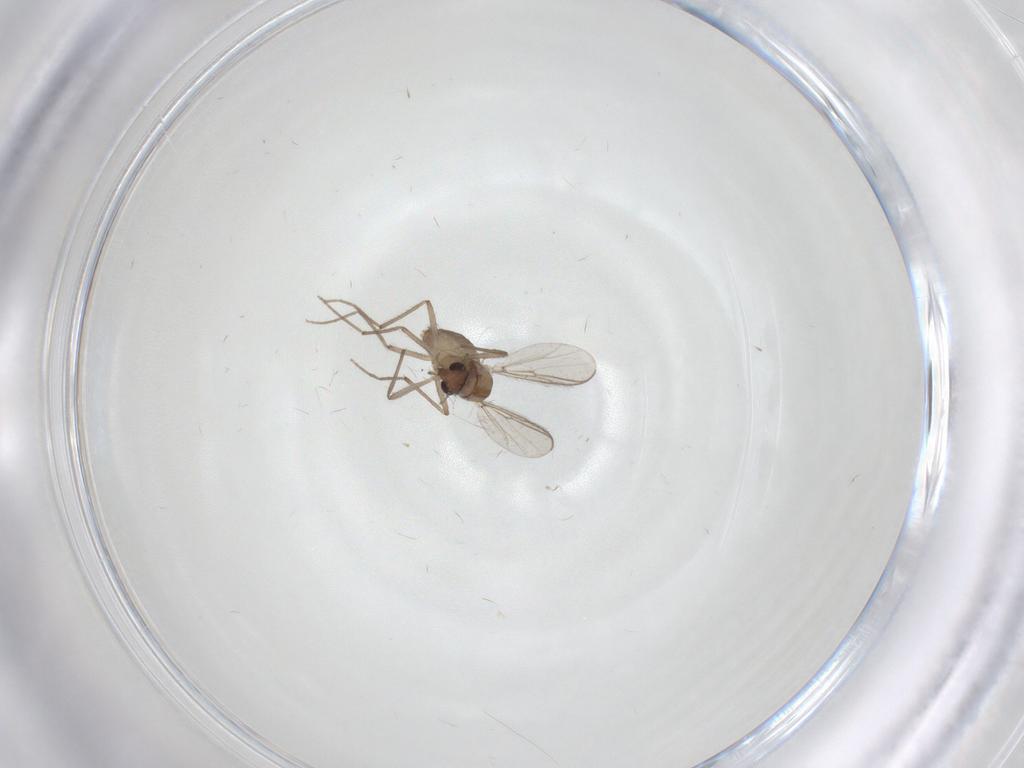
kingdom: Animalia
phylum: Arthropoda
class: Insecta
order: Diptera
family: Chironomidae
